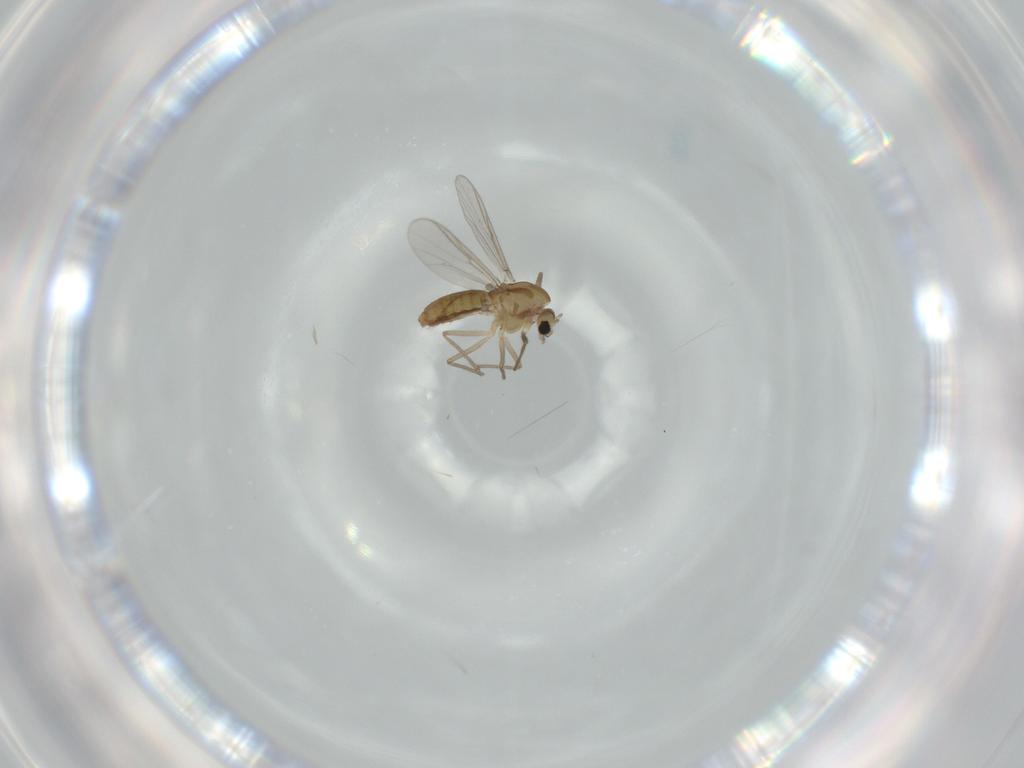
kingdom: Animalia
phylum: Arthropoda
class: Insecta
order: Diptera
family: Chironomidae
